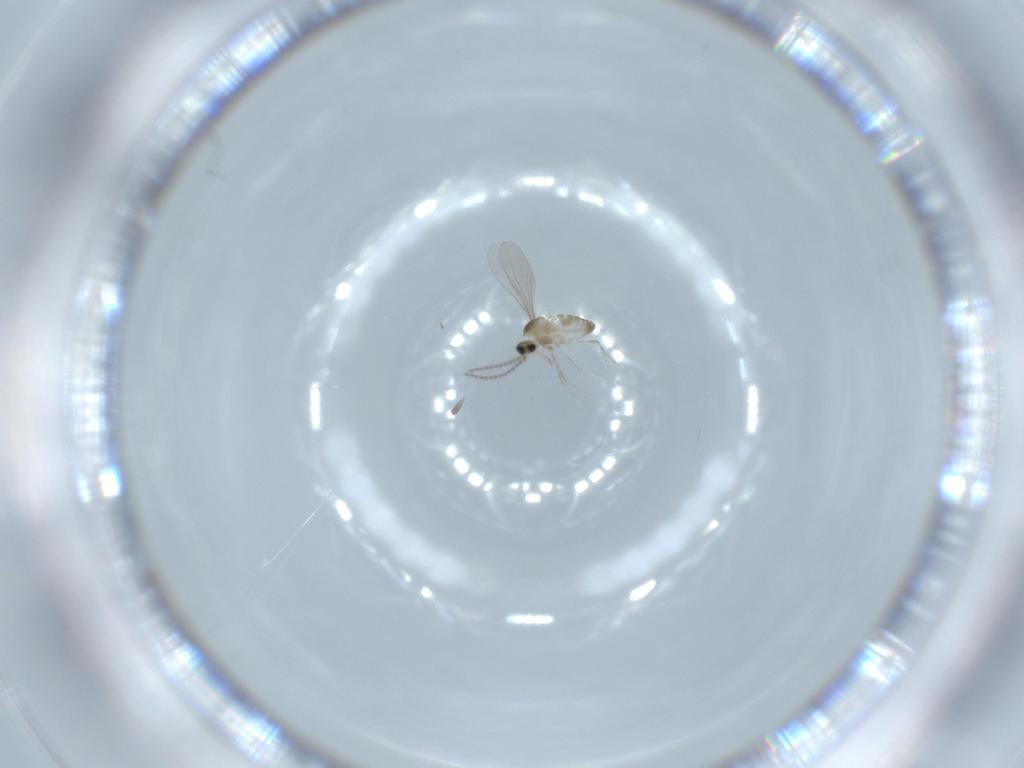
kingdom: Animalia
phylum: Arthropoda
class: Insecta
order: Diptera
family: Cecidomyiidae
